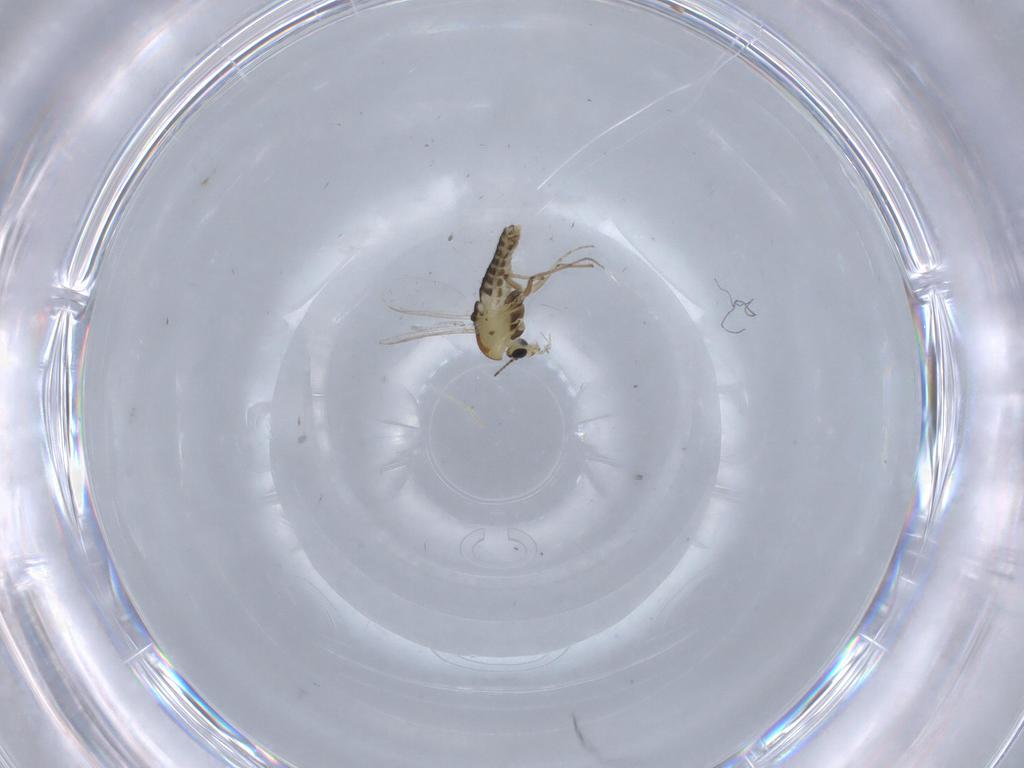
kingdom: Animalia
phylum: Arthropoda
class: Insecta
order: Diptera
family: Chironomidae
